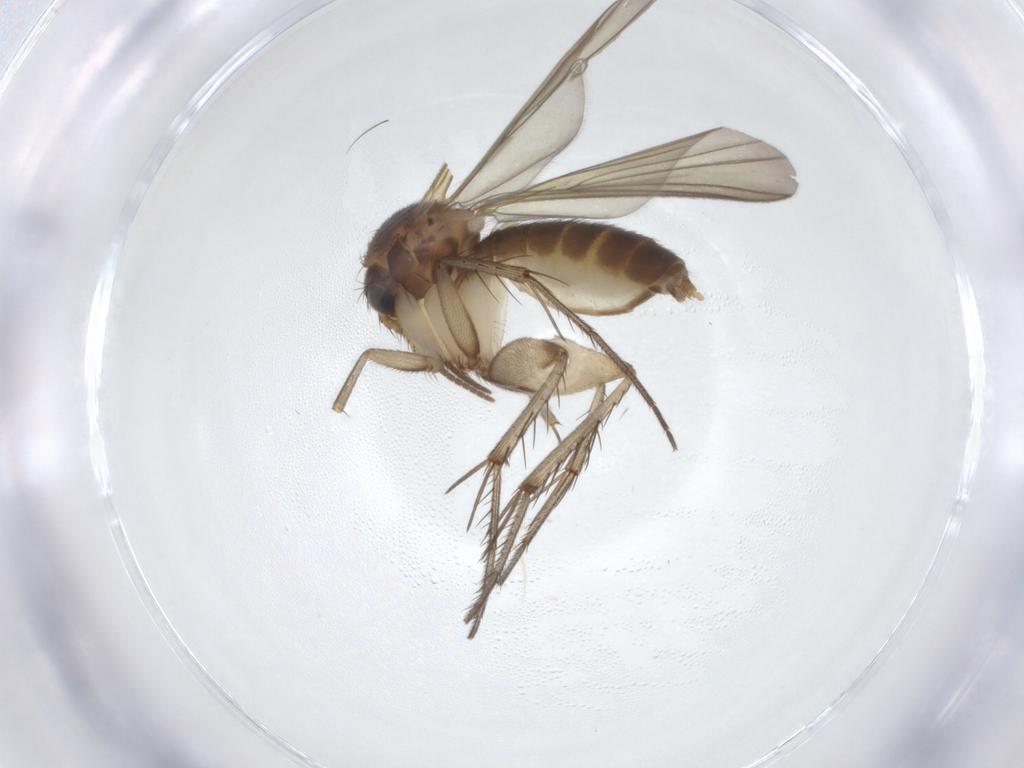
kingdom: Animalia
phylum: Arthropoda
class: Insecta
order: Diptera
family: Mycetophilidae
